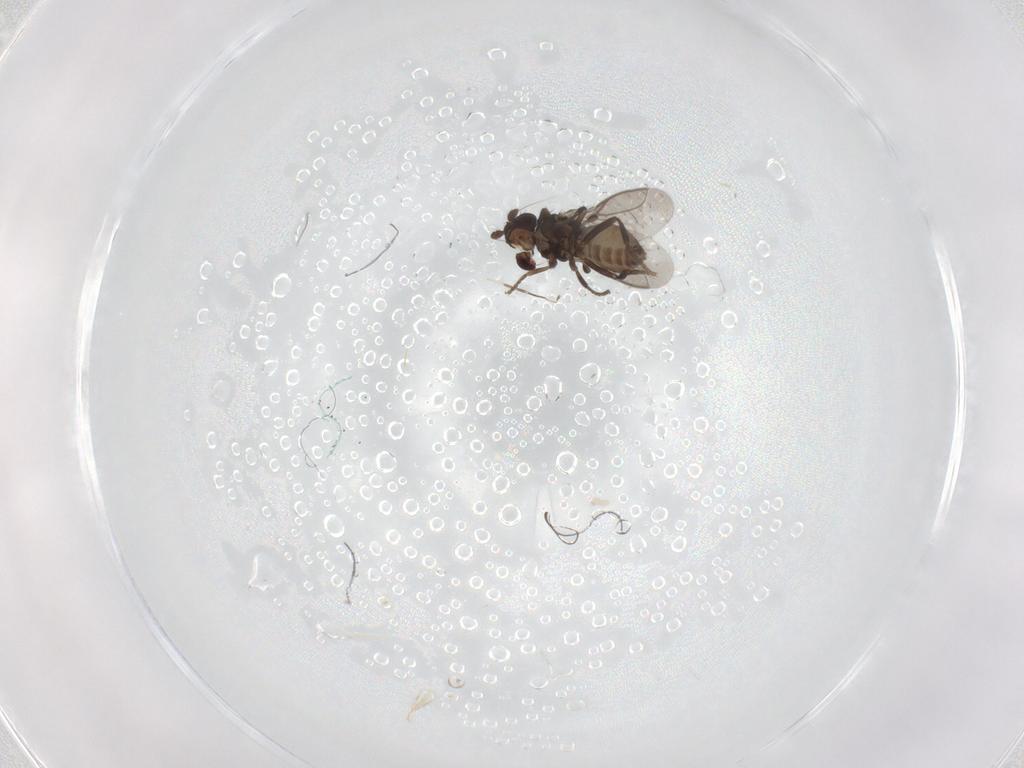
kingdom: Animalia
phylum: Arthropoda
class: Insecta
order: Diptera
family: Sphaeroceridae
